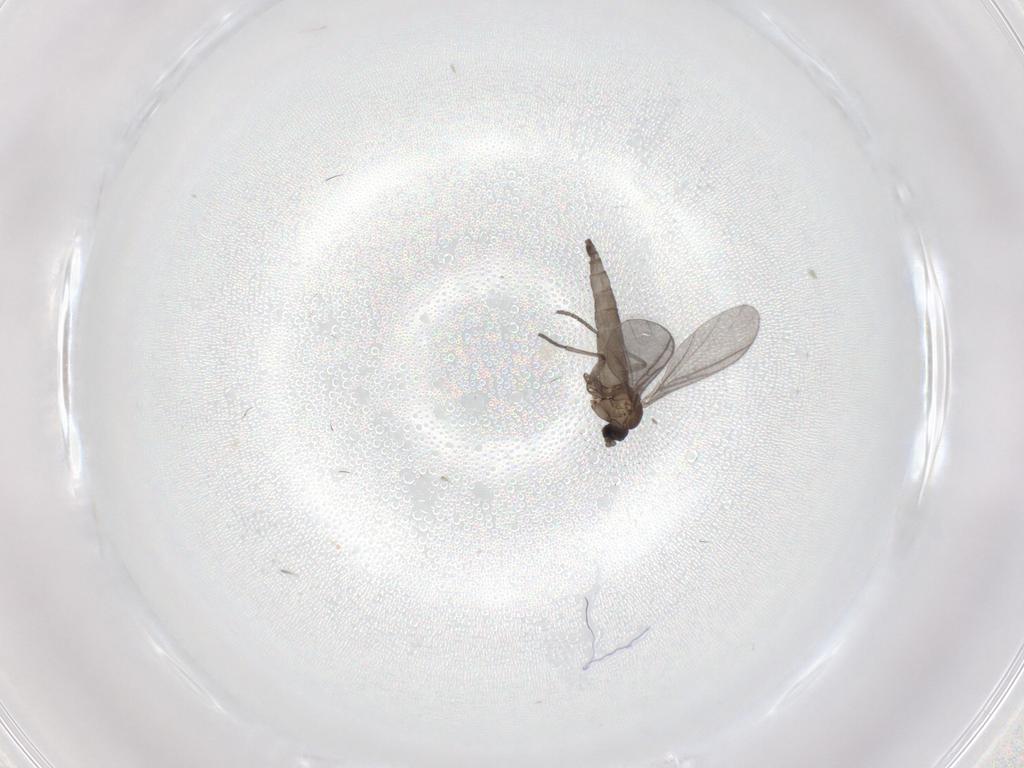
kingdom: Animalia
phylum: Arthropoda
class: Insecta
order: Diptera
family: Sciaridae
